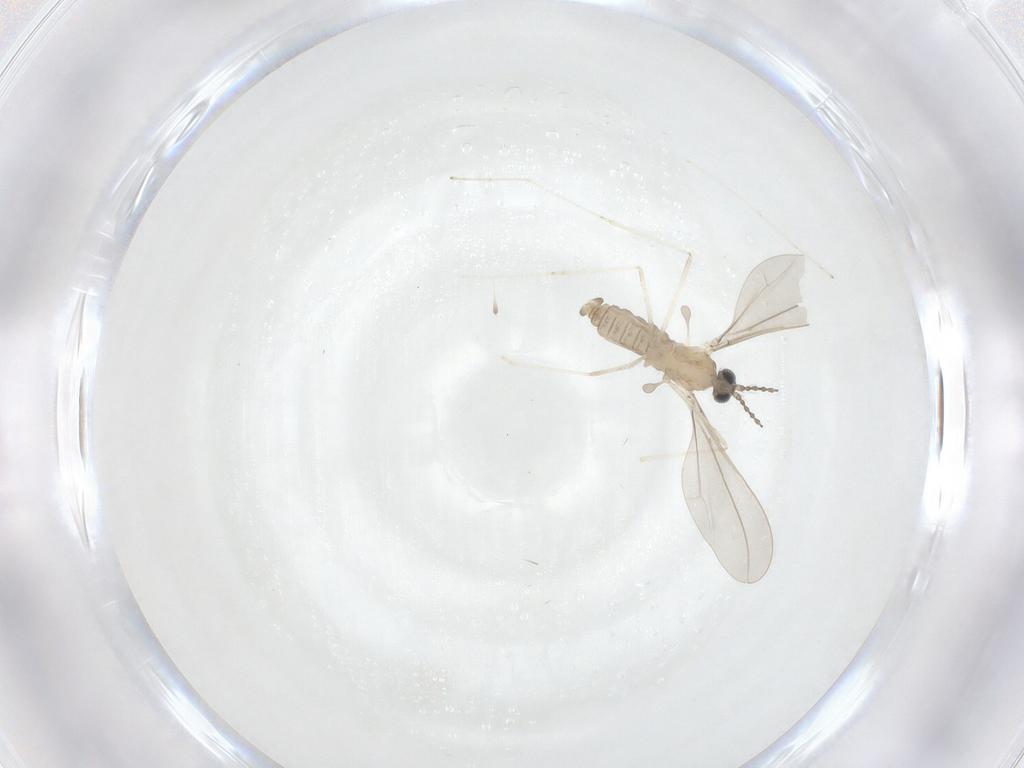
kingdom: Animalia
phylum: Arthropoda
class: Insecta
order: Diptera
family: Cecidomyiidae
